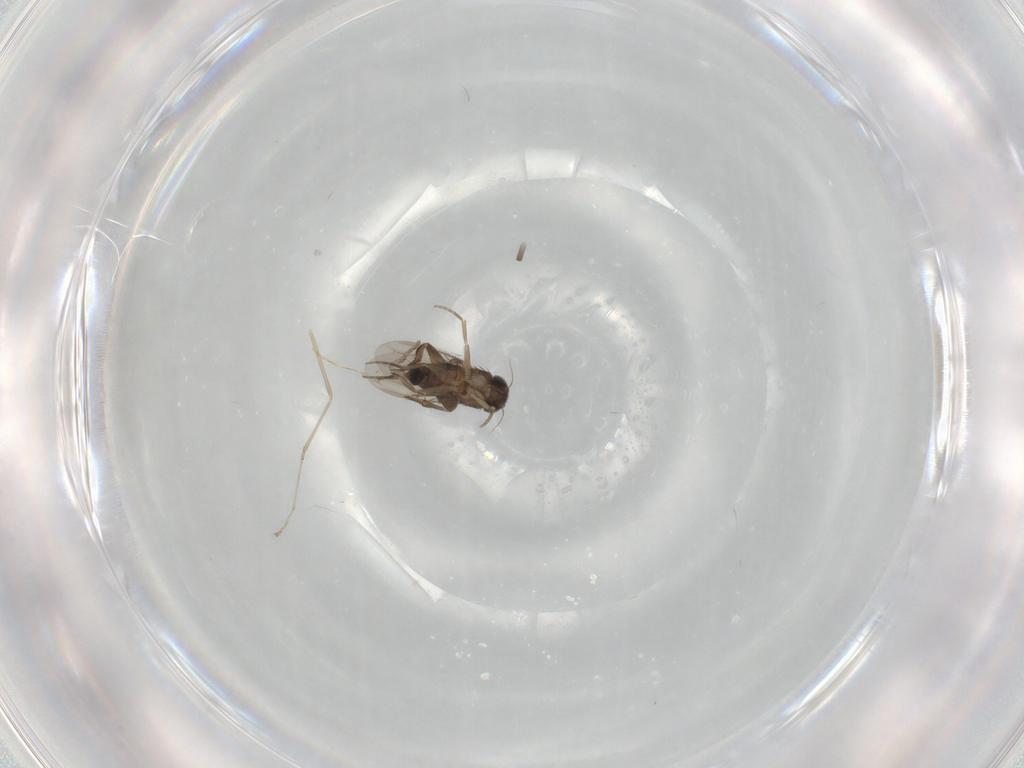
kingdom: Animalia
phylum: Arthropoda
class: Insecta
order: Diptera
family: Phoridae
